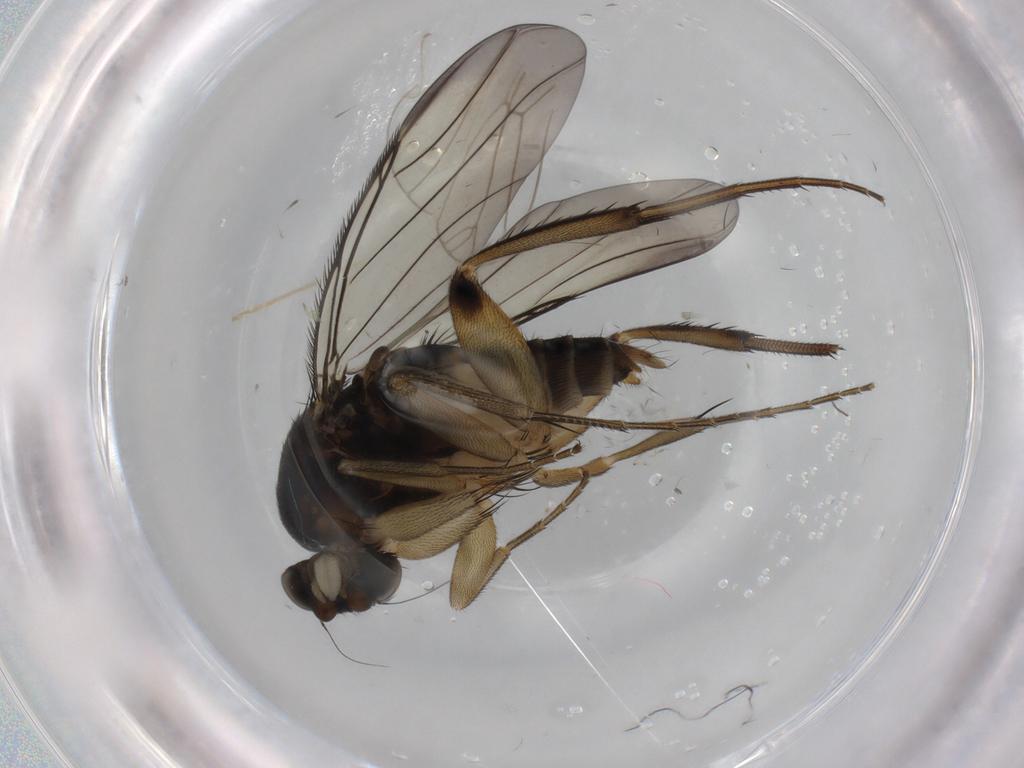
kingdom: Animalia
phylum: Arthropoda
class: Insecta
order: Diptera
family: Phoridae
